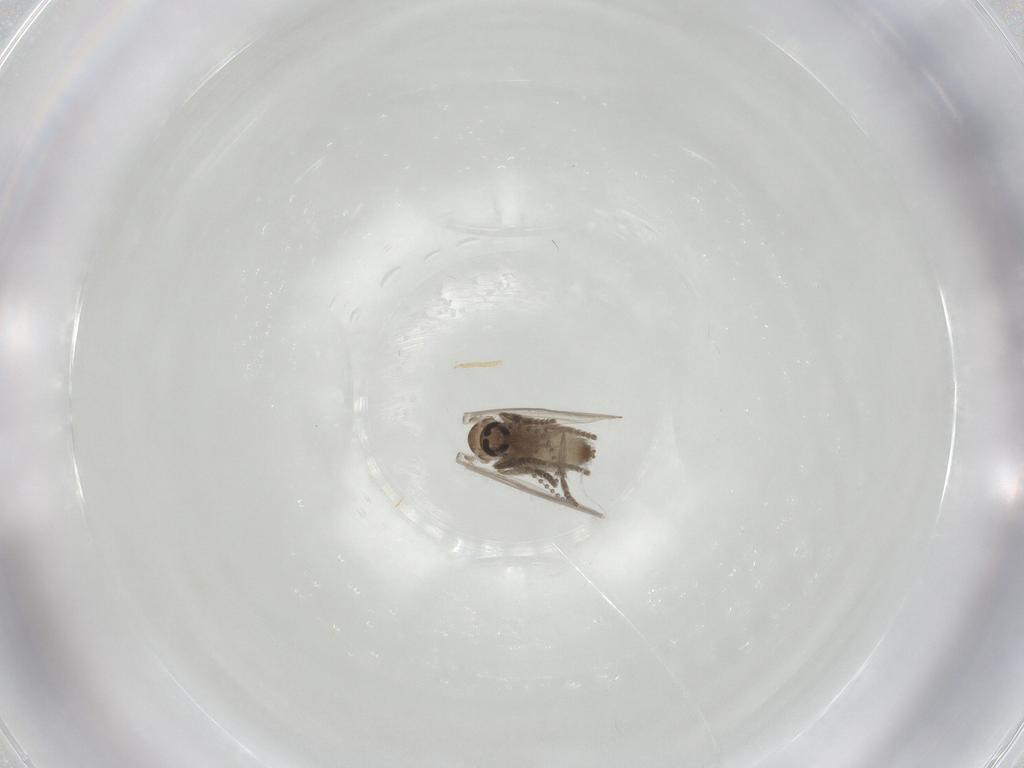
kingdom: Animalia
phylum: Arthropoda
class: Insecta
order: Diptera
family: Psychodidae
